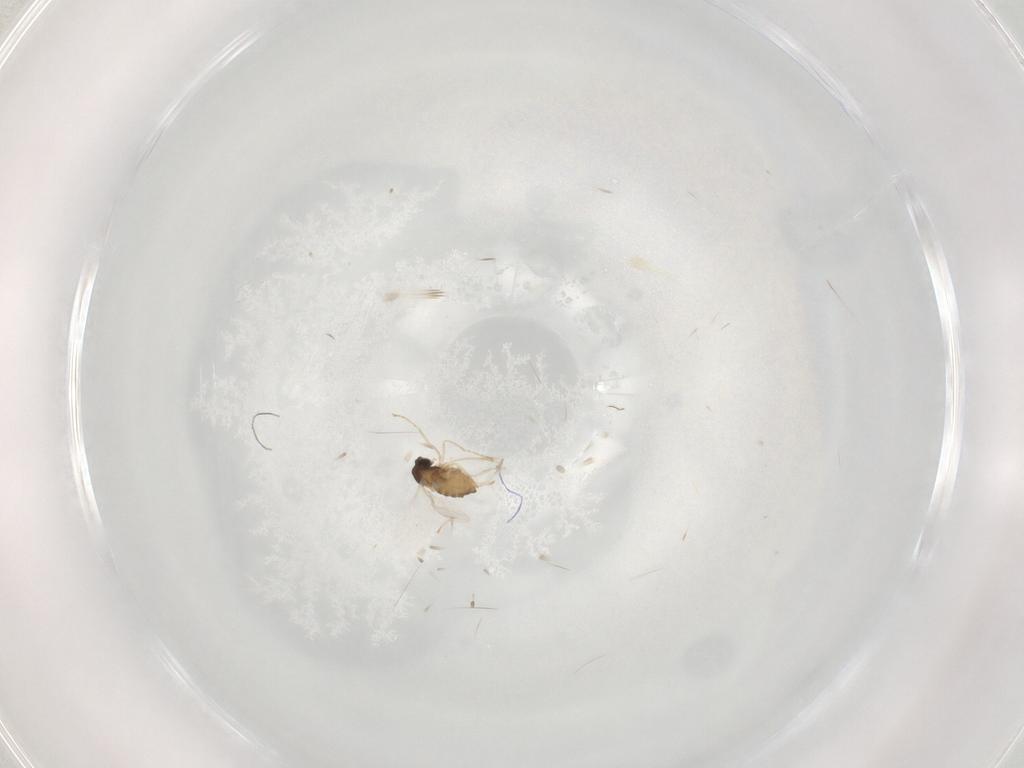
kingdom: Animalia
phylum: Arthropoda
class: Insecta
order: Diptera
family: Cecidomyiidae
